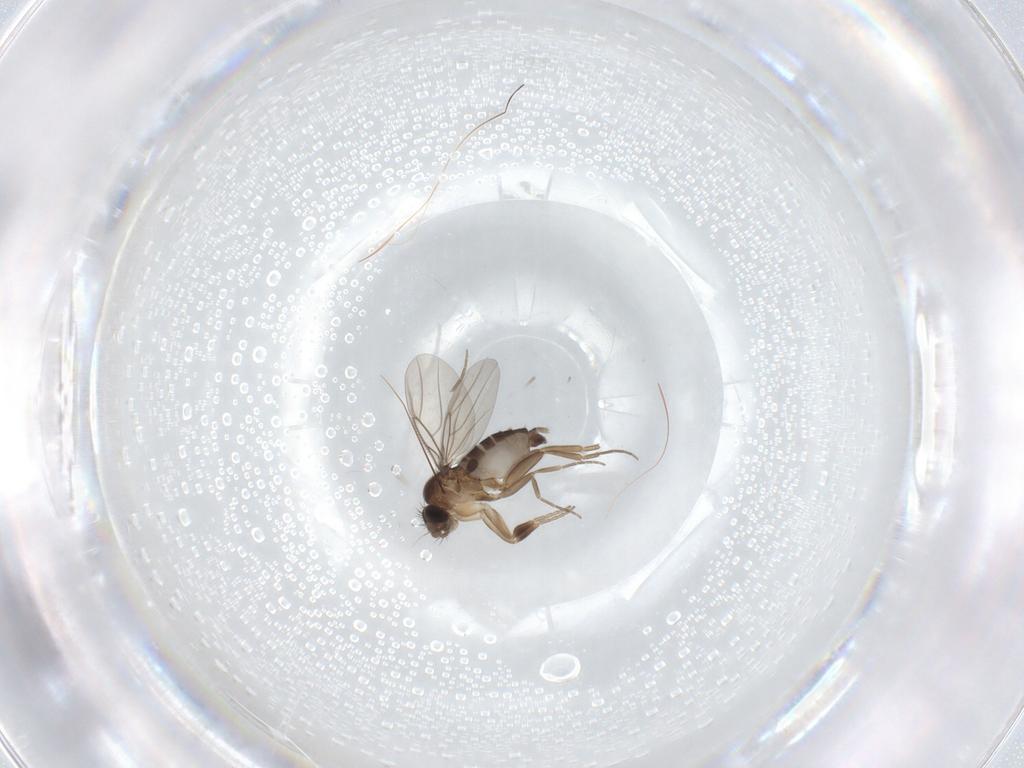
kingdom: Animalia
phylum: Arthropoda
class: Insecta
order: Diptera
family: Phoridae
